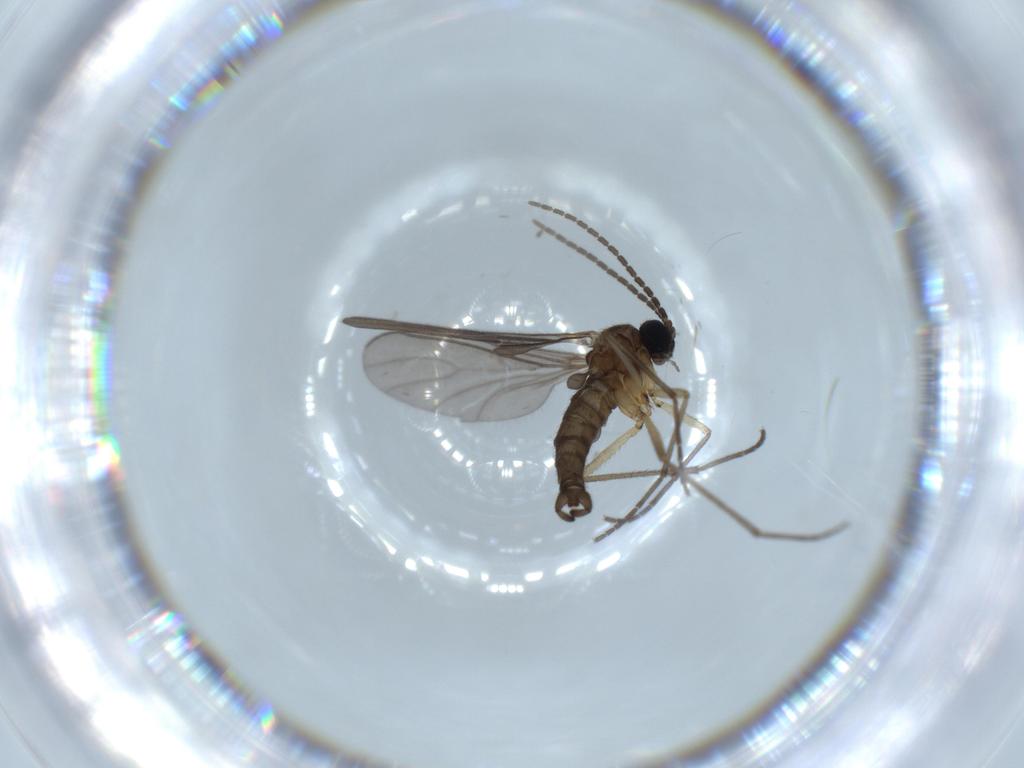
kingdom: Animalia
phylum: Arthropoda
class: Insecta
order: Diptera
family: Sciaridae
